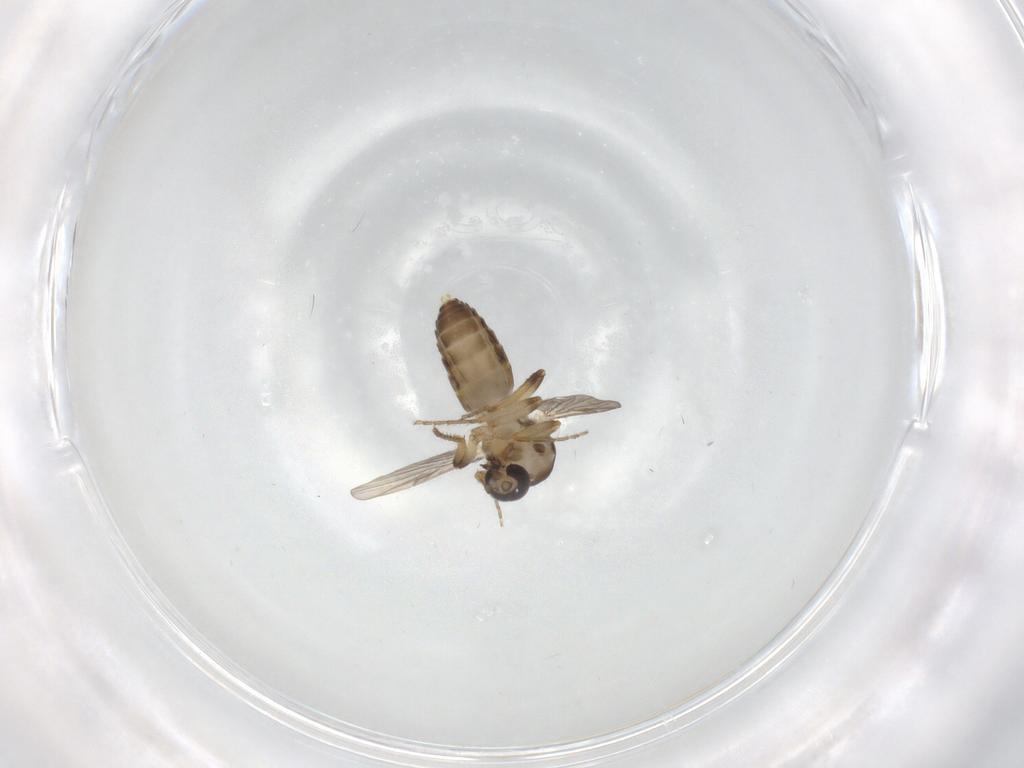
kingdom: Animalia
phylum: Arthropoda
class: Insecta
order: Diptera
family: Ceratopogonidae
